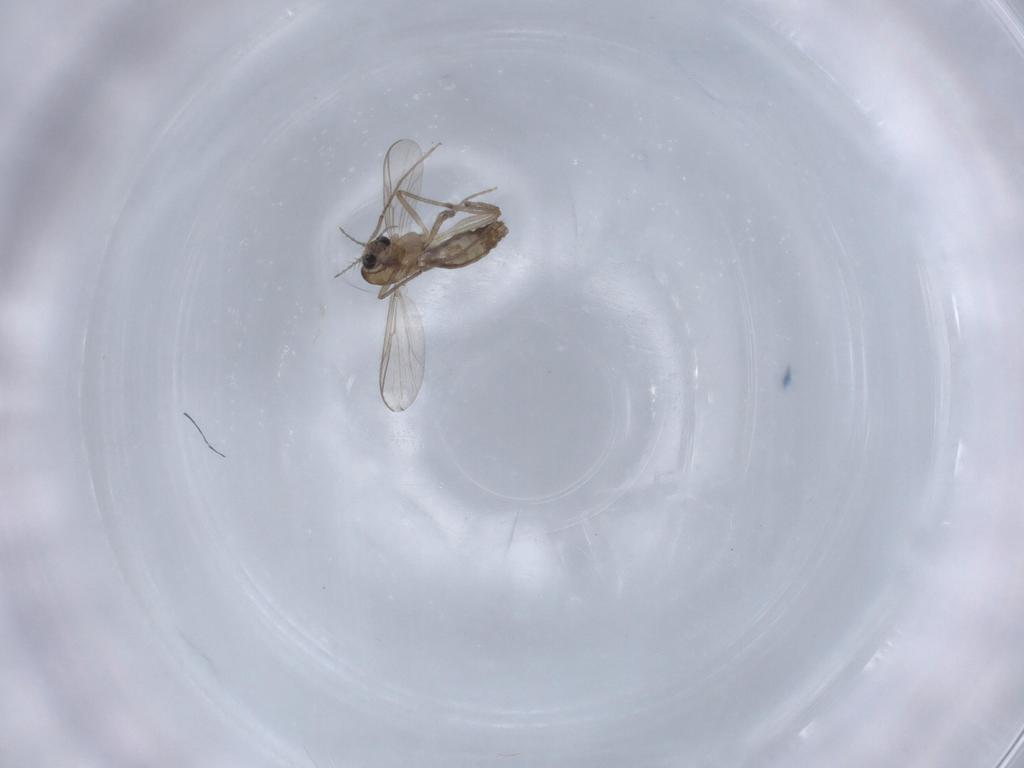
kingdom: Animalia
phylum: Arthropoda
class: Insecta
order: Diptera
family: Chironomidae
